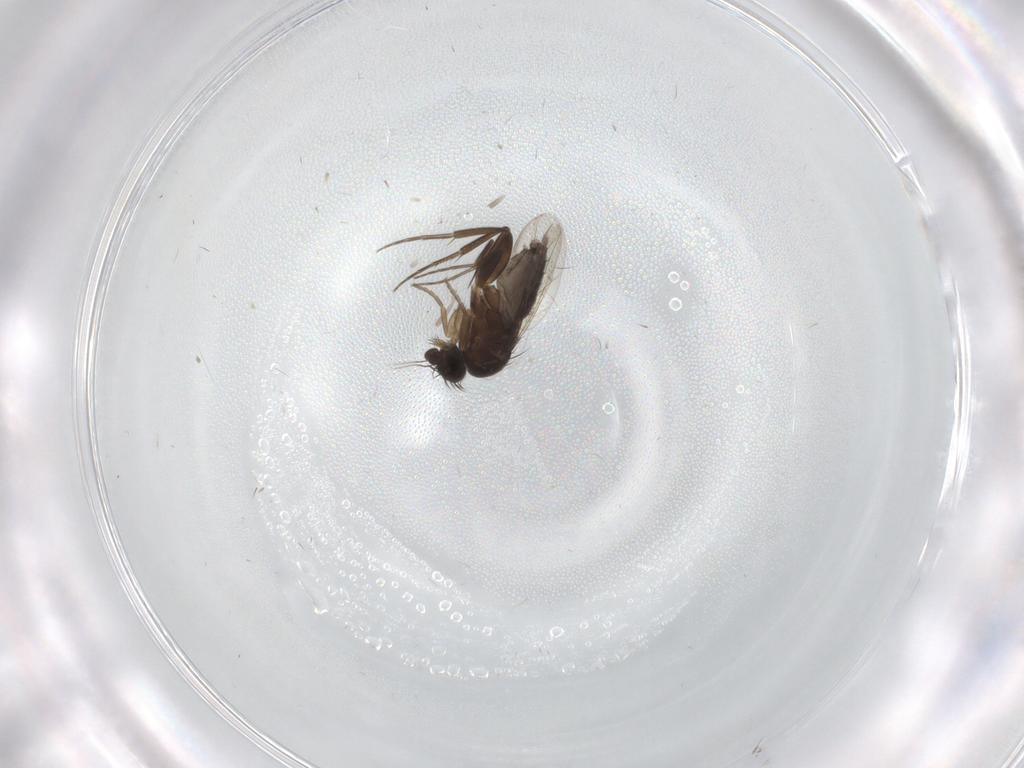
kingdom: Animalia
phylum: Arthropoda
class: Insecta
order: Diptera
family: Phoridae
